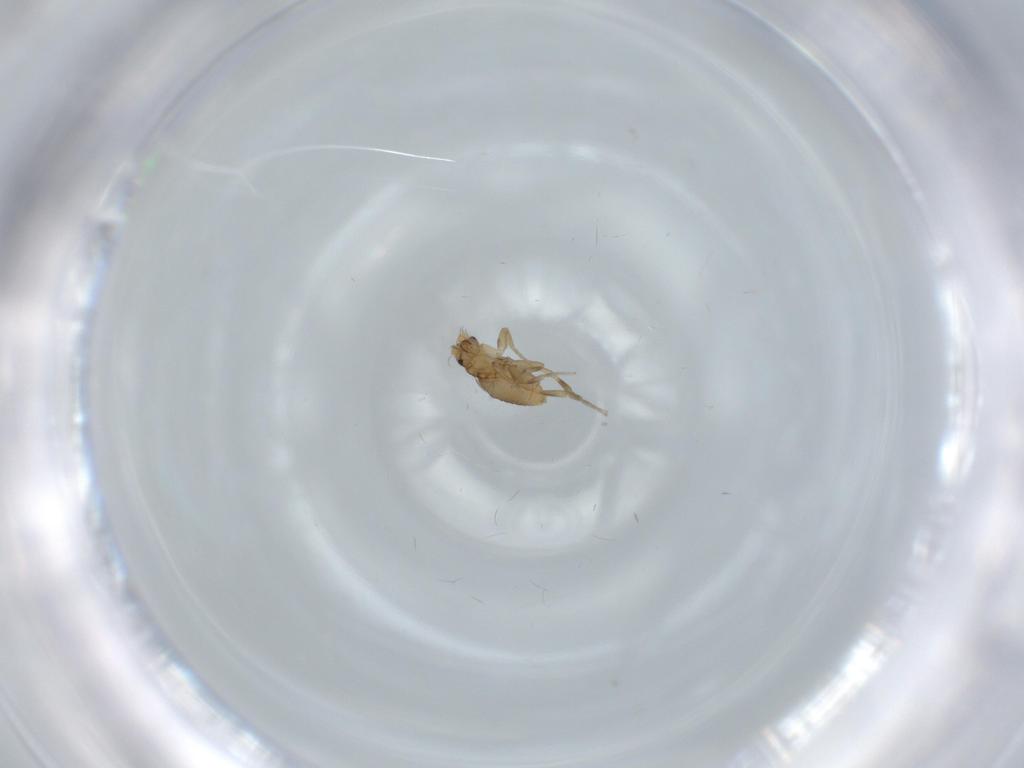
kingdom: Animalia
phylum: Arthropoda
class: Insecta
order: Diptera
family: Phoridae
